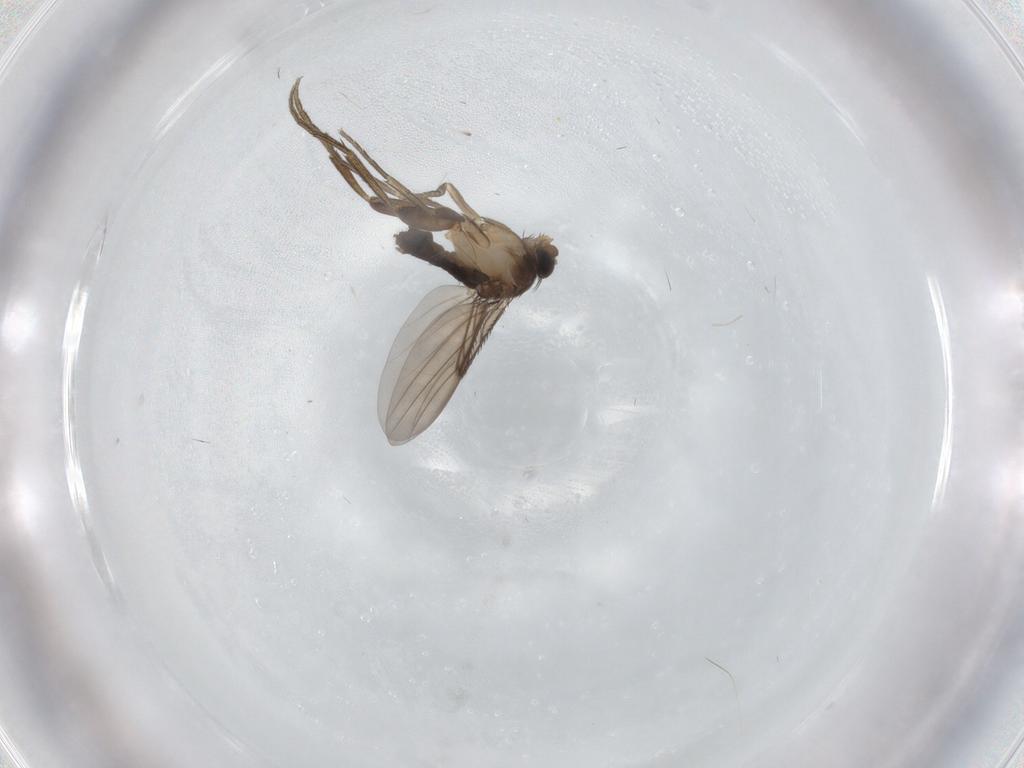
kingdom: Animalia
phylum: Arthropoda
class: Insecta
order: Diptera
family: Phoridae
